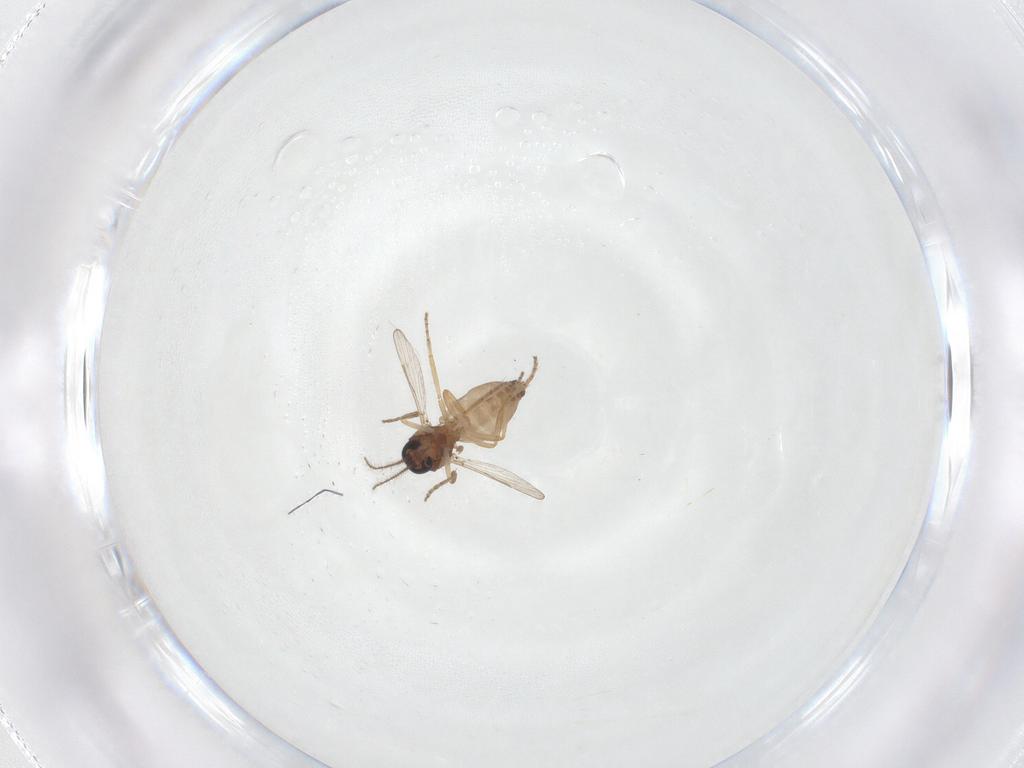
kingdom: Animalia
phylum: Arthropoda
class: Insecta
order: Diptera
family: Ceratopogonidae
